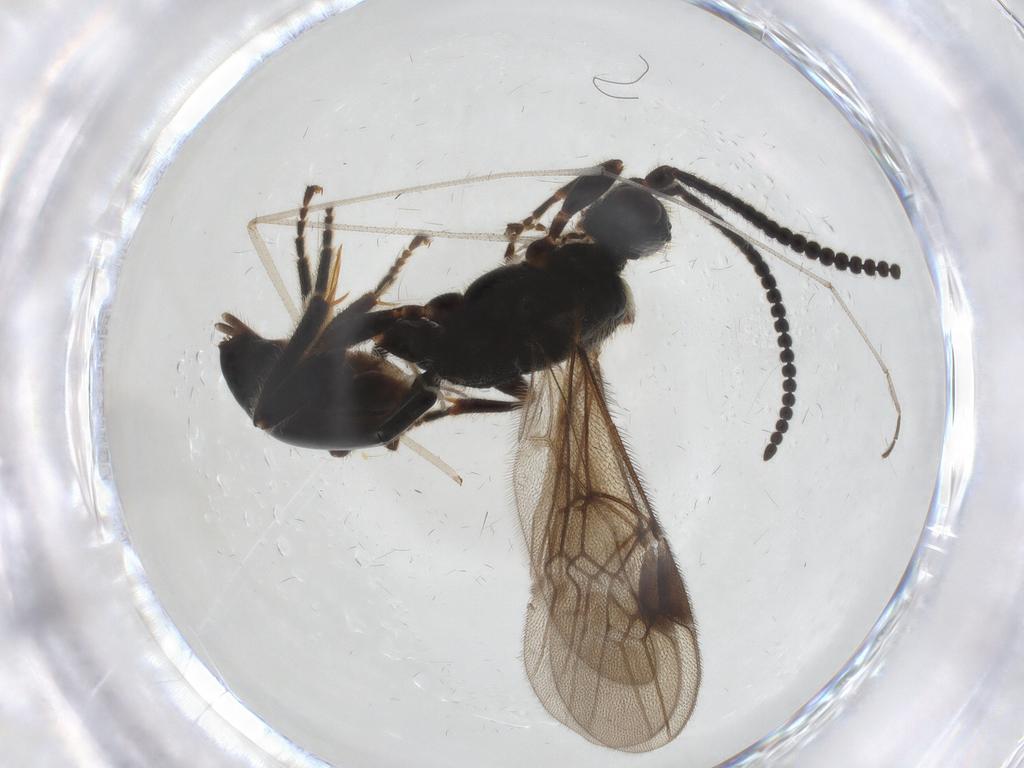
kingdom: Animalia
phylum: Arthropoda
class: Insecta
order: Hymenoptera
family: Braconidae
